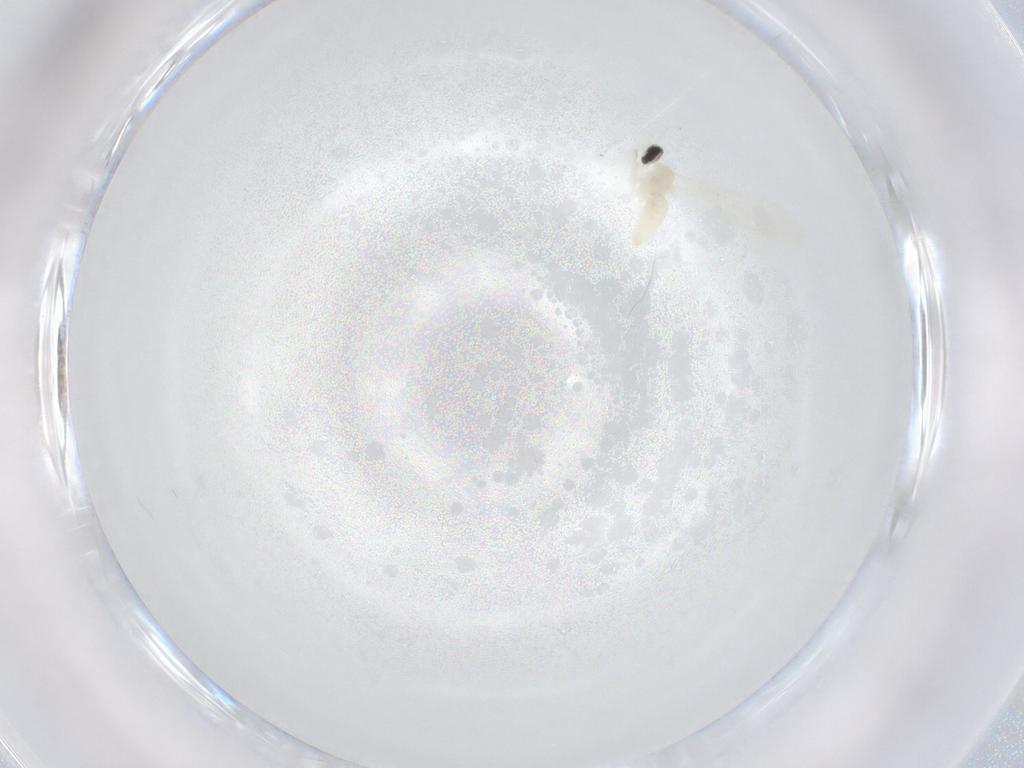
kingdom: Animalia
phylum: Arthropoda
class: Insecta
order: Diptera
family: Cecidomyiidae
